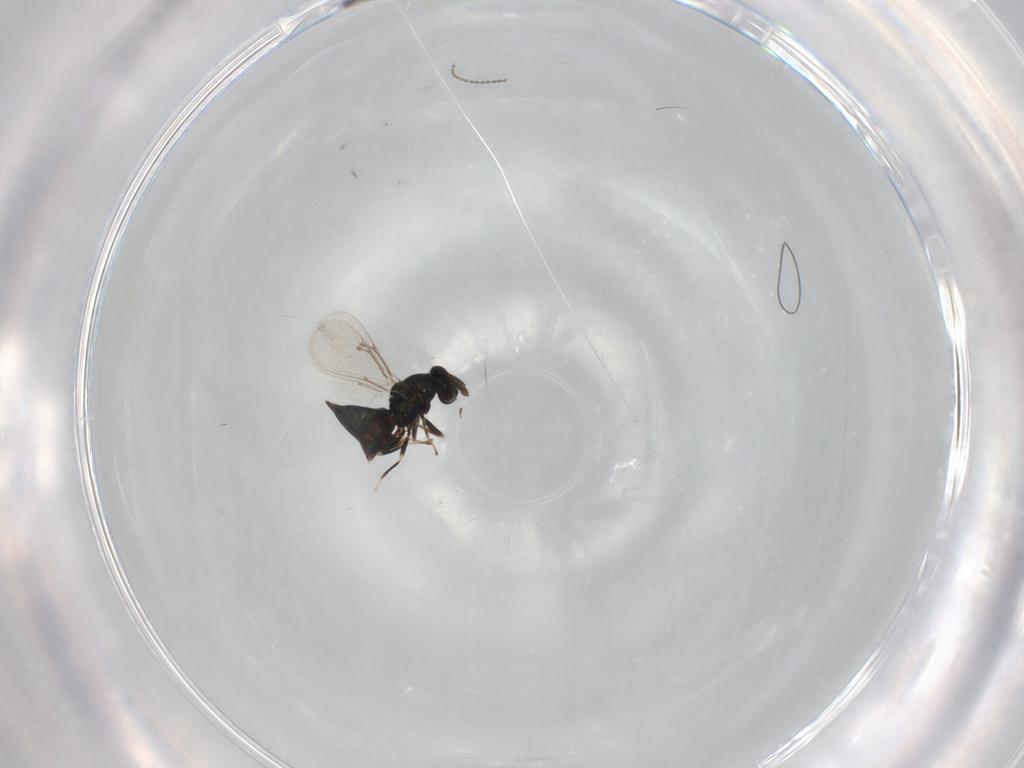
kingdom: Animalia
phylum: Arthropoda
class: Insecta
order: Hymenoptera
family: Eulophidae
